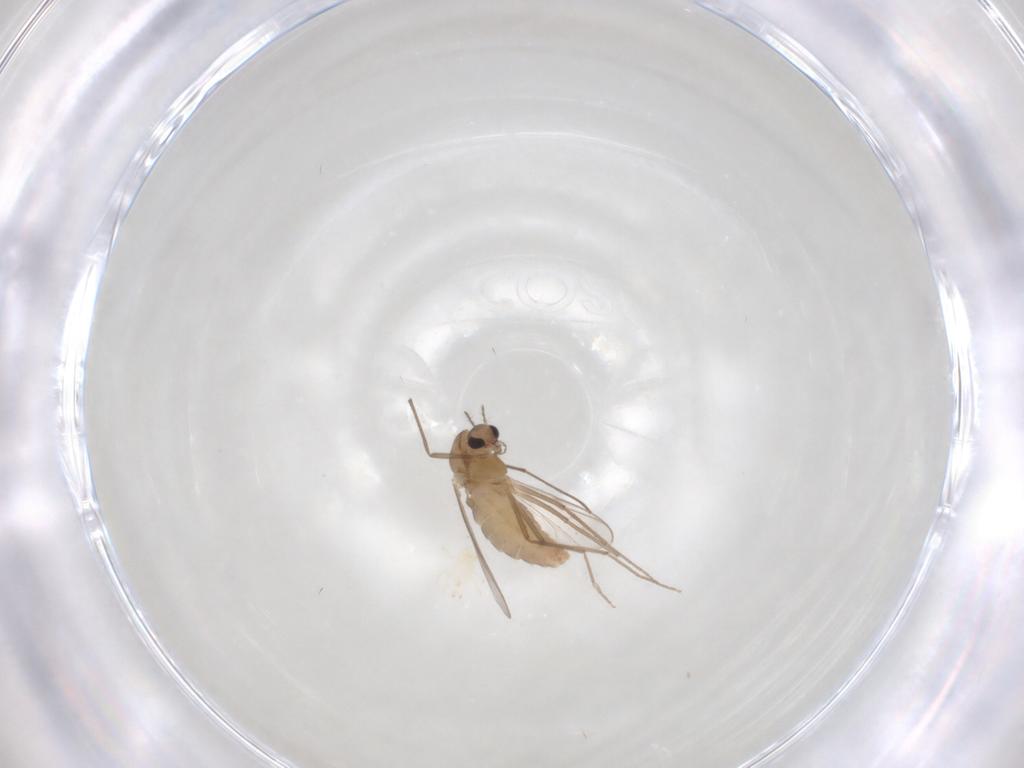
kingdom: Animalia
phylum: Arthropoda
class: Insecta
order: Diptera
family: Chironomidae
